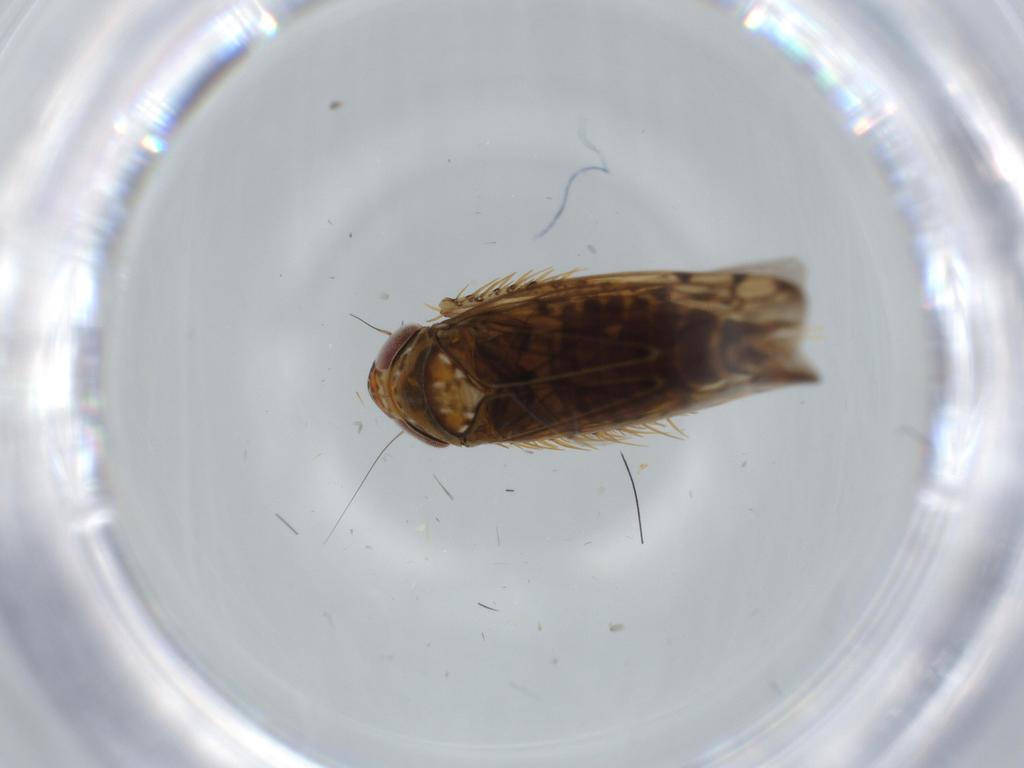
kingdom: Animalia
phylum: Arthropoda
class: Insecta
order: Hemiptera
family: Cicadellidae
